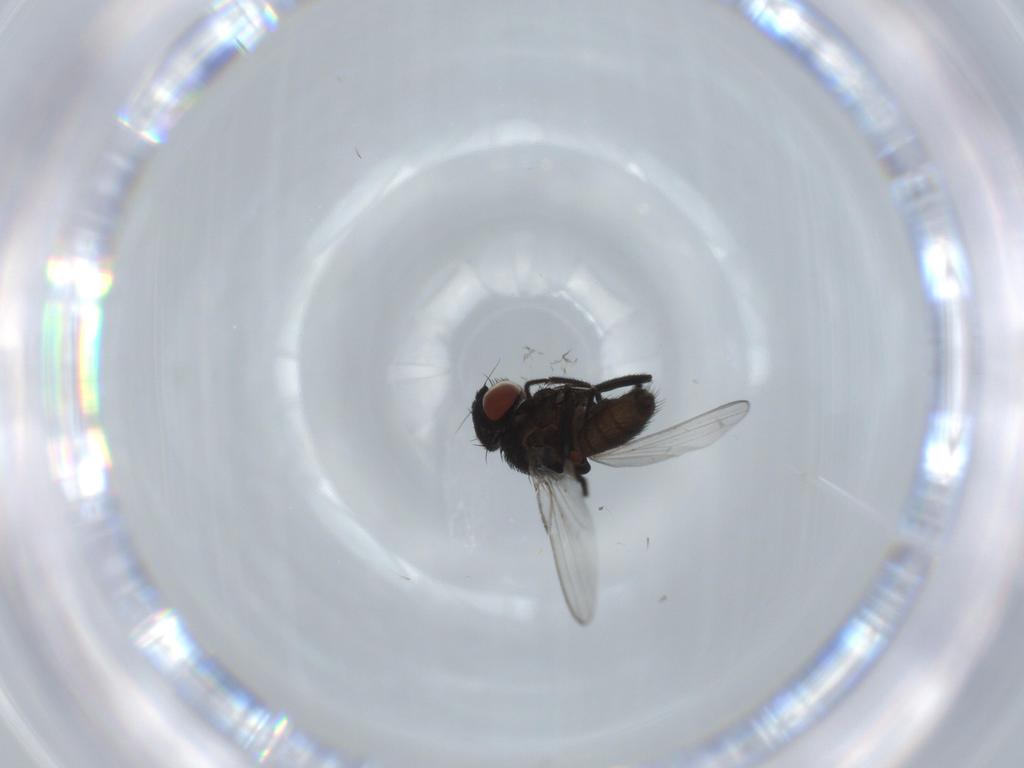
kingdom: Animalia
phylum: Arthropoda
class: Insecta
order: Diptera
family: Milichiidae
